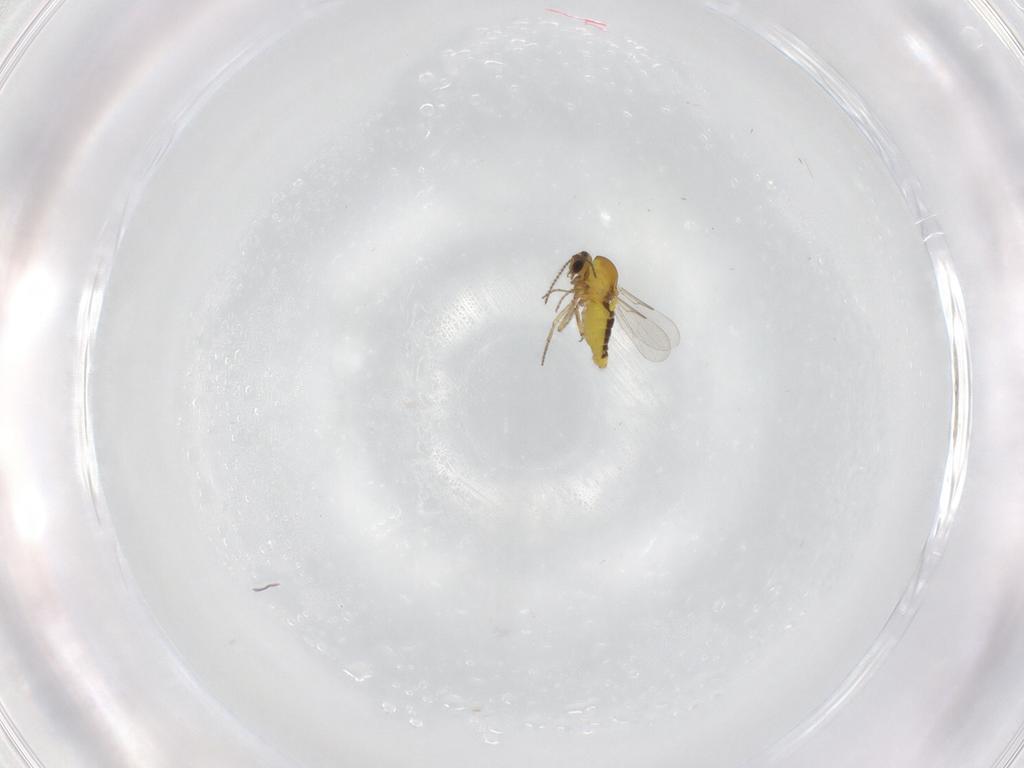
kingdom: Animalia
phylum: Arthropoda
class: Insecta
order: Diptera
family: Ceratopogonidae
